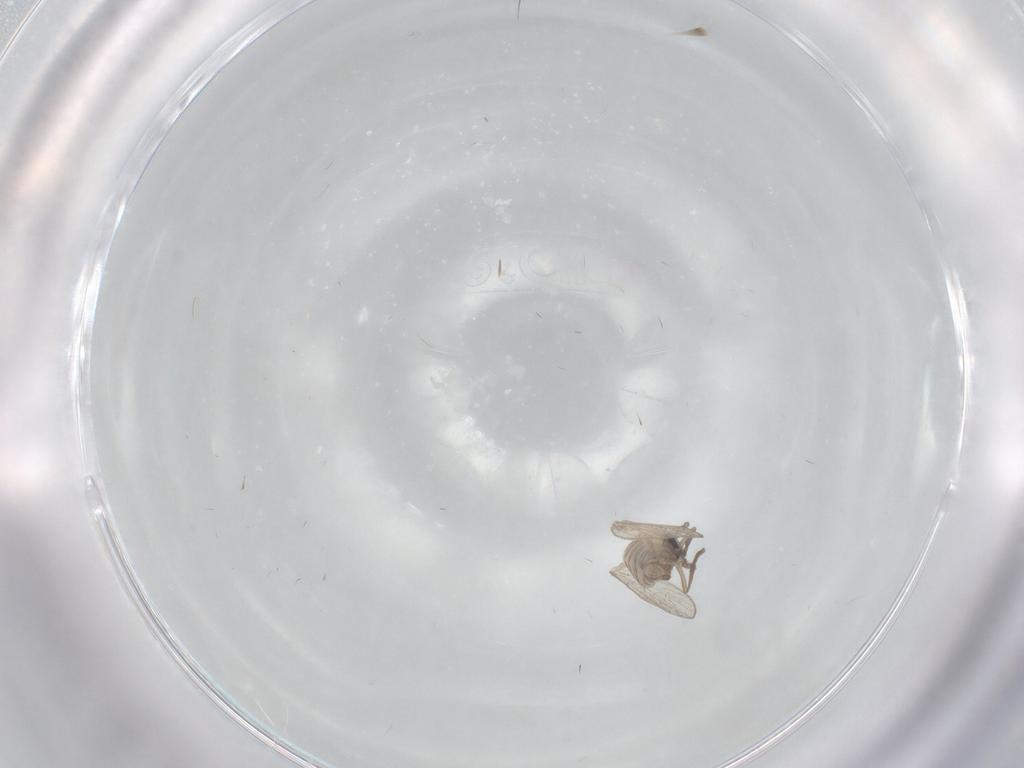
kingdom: Animalia
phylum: Arthropoda
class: Insecta
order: Diptera
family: Psychodidae
